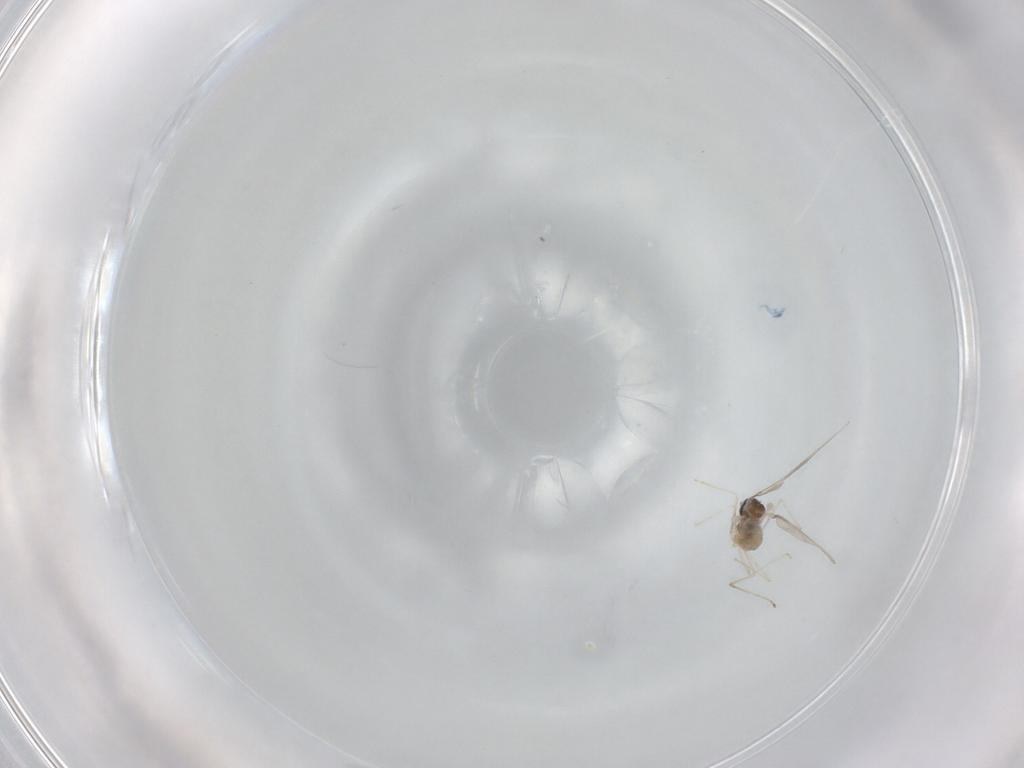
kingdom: Animalia
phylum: Arthropoda
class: Insecta
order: Diptera
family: Cecidomyiidae
